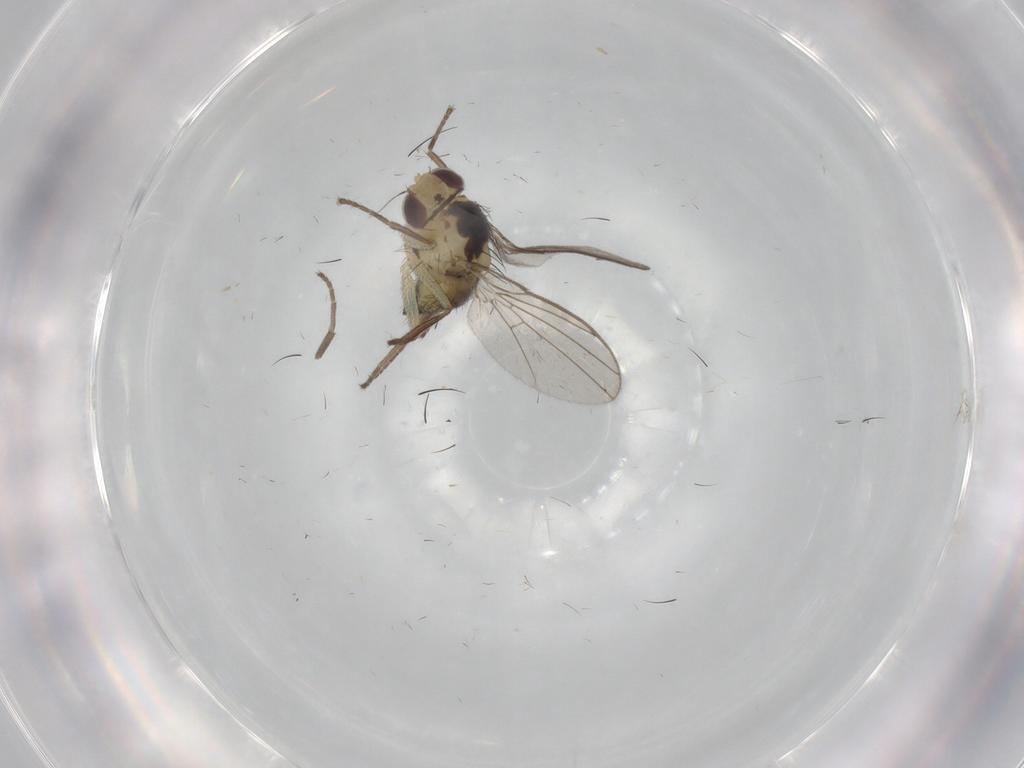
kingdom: Animalia
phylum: Arthropoda
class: Insecta
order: Diptera
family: Agromyzidae
